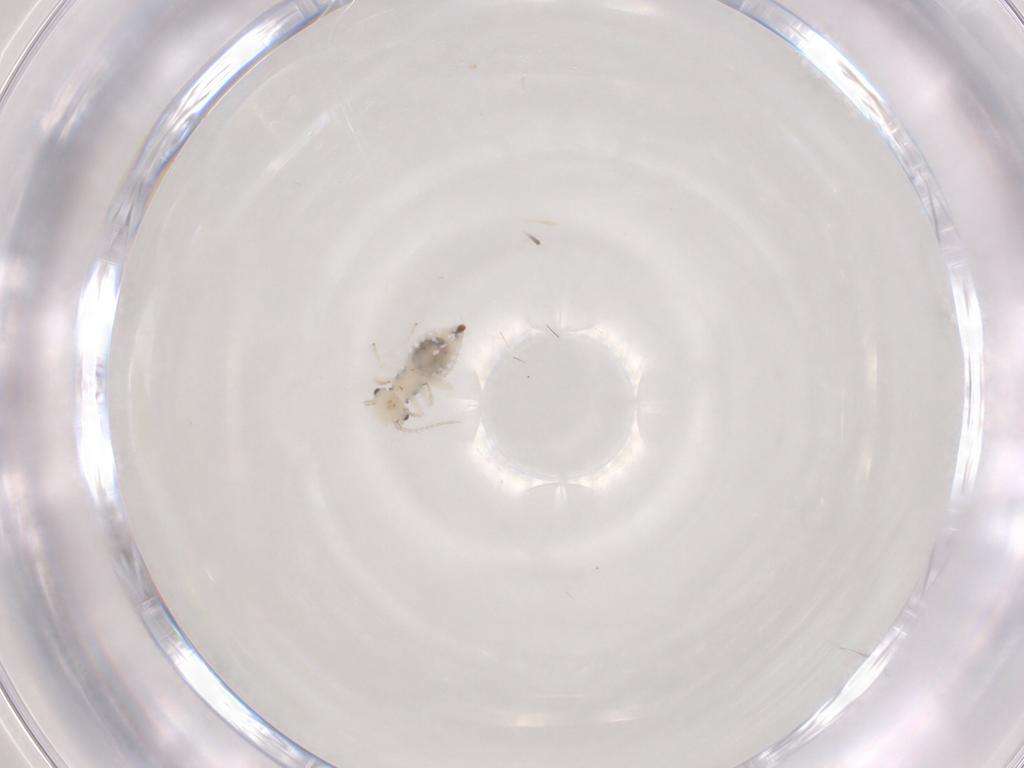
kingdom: Animalia
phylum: Arthropoda
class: Insecta
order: Psocodea
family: Caeciliusidae
